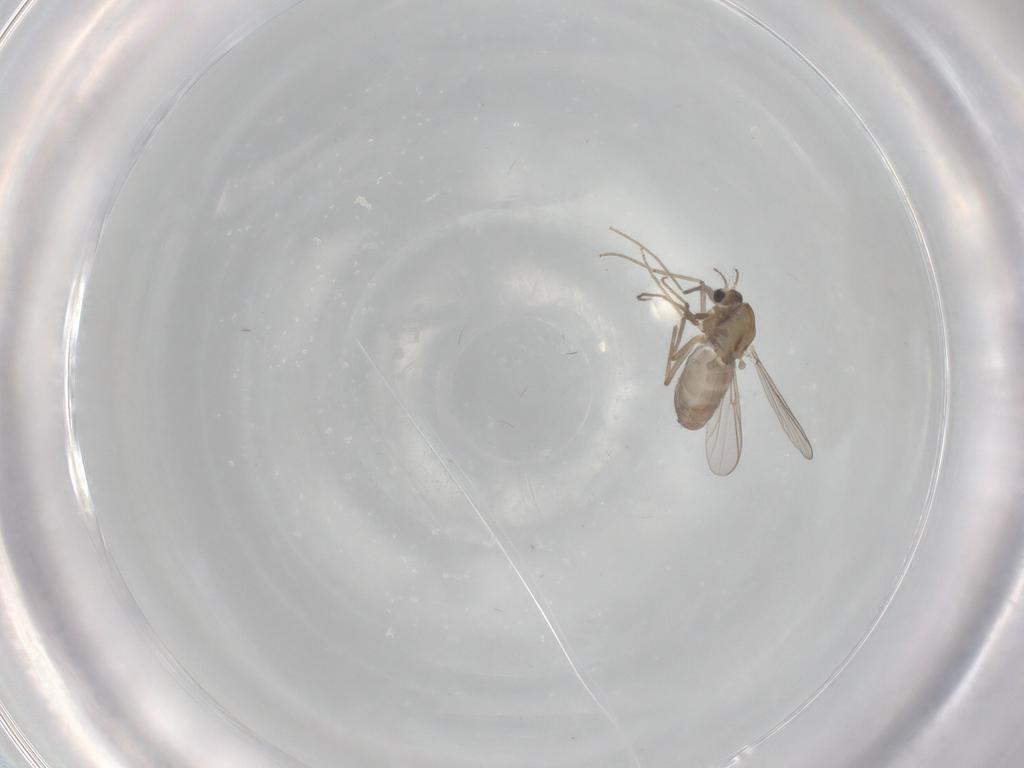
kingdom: Animalia
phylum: Arthropoda
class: Insecta
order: Diptera
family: Chironomidae
